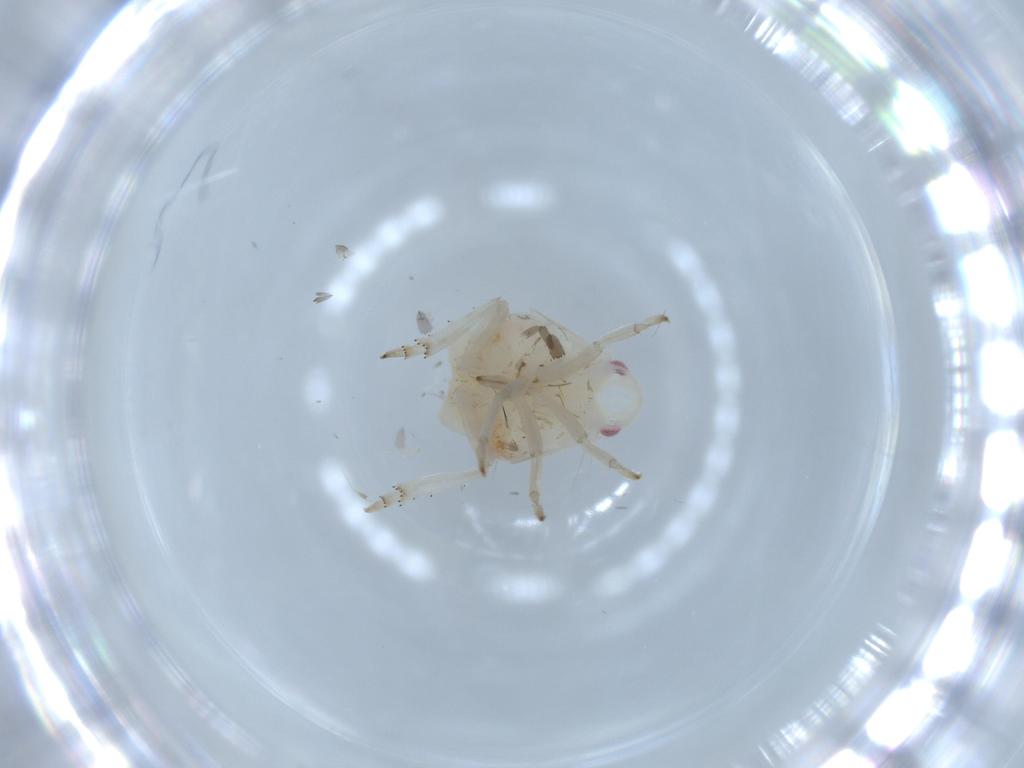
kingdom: Animalia
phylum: Arthropoda
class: Insecta
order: Hemiptera
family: Flatidae
